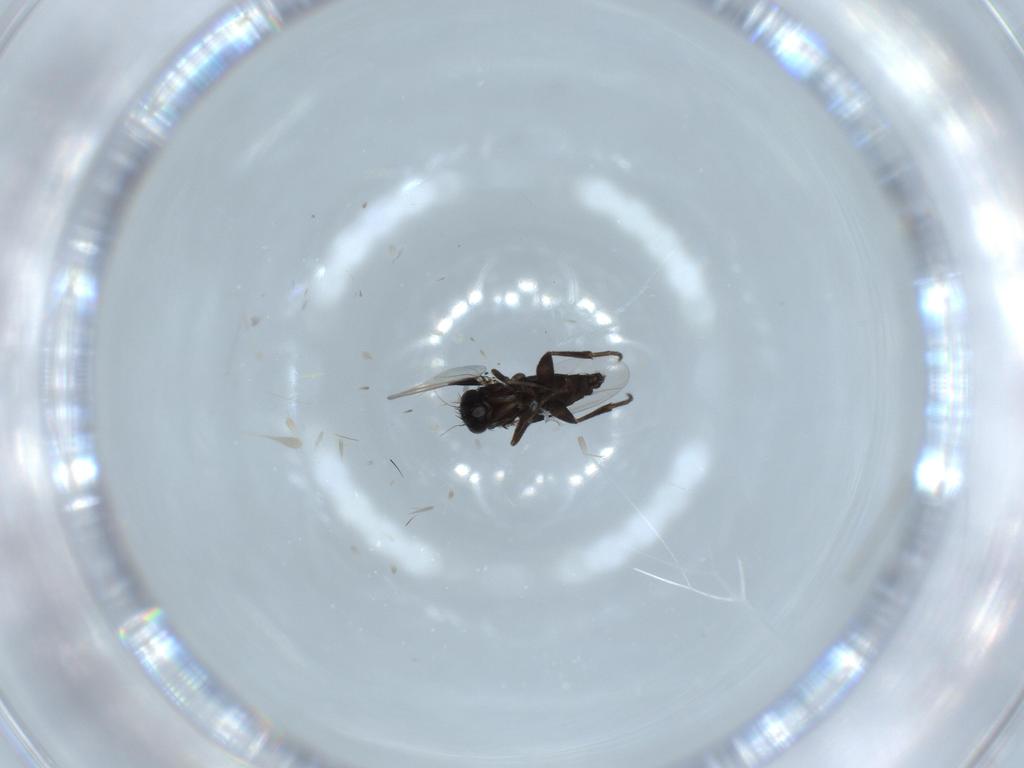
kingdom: Animalia
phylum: Arthropoda
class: Insecta
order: Diptera
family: Phoridae
